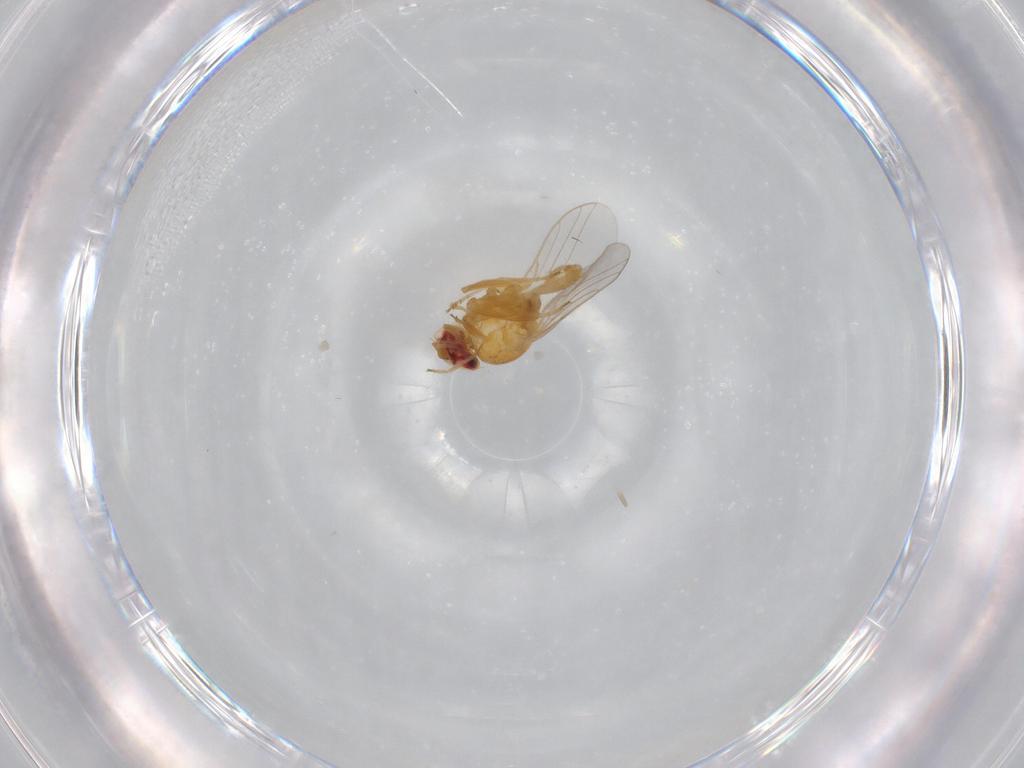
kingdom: Animalia
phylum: Arthropoda
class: Insecta
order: Diptera
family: Chloropidae
